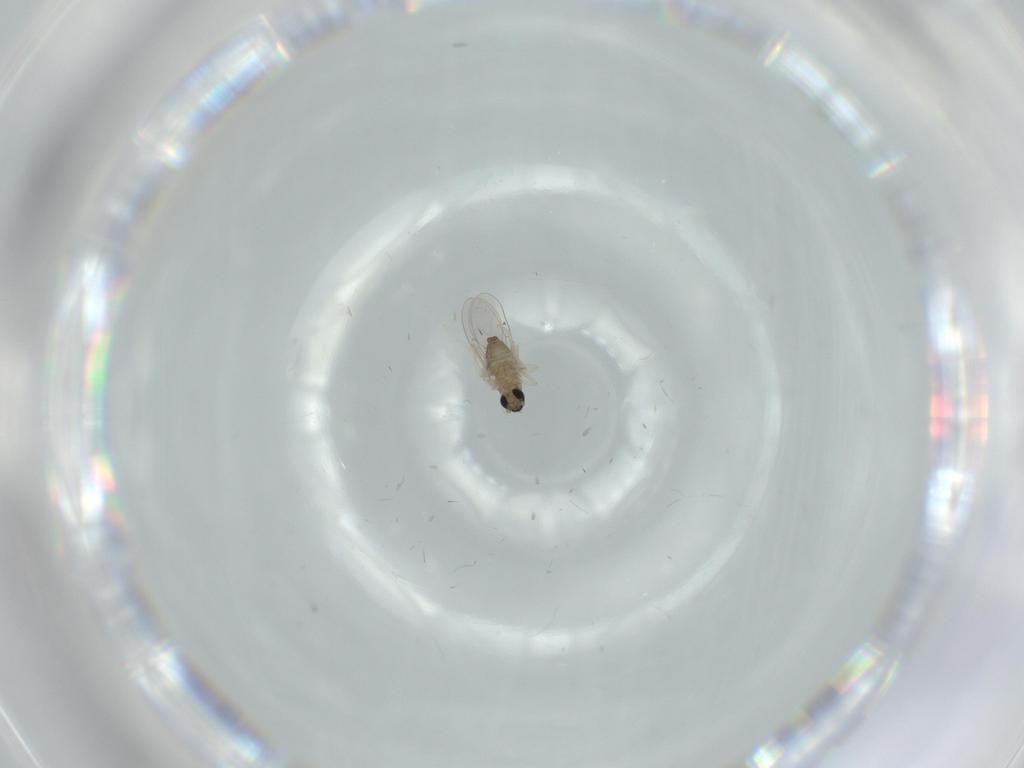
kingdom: Animalia
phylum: Arthropoda
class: Insecta
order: Diptera
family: Cecidomyiidae
